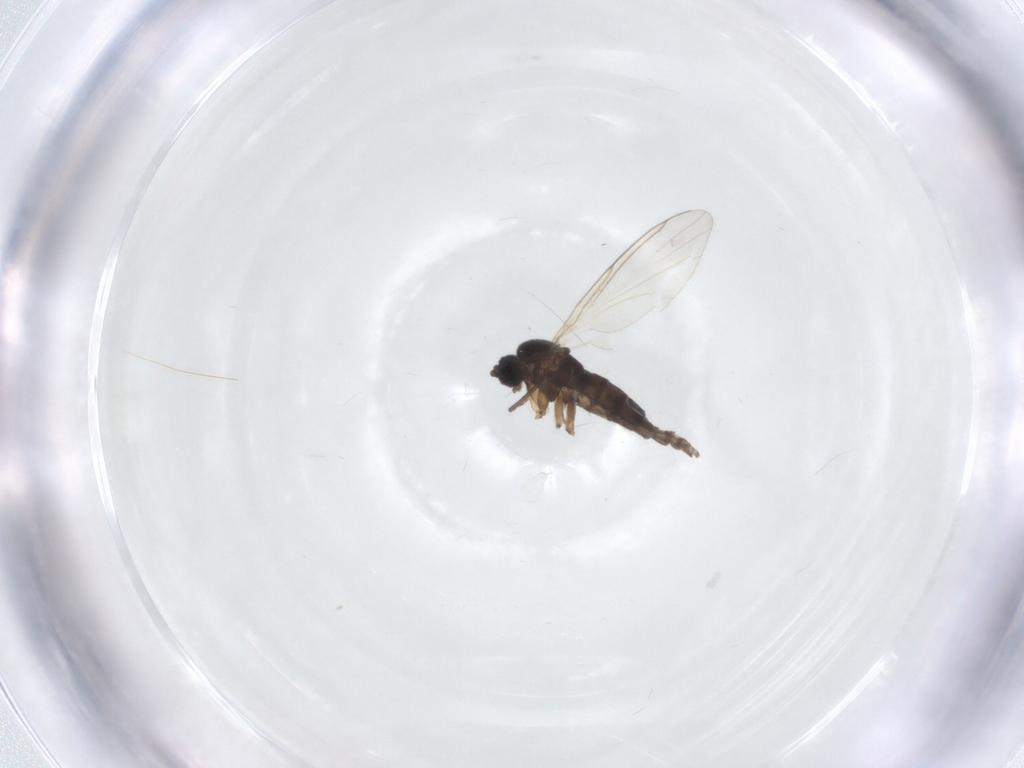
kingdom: Animalia
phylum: Arthropoda
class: Insecta
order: Diptera
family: Sciaridae
